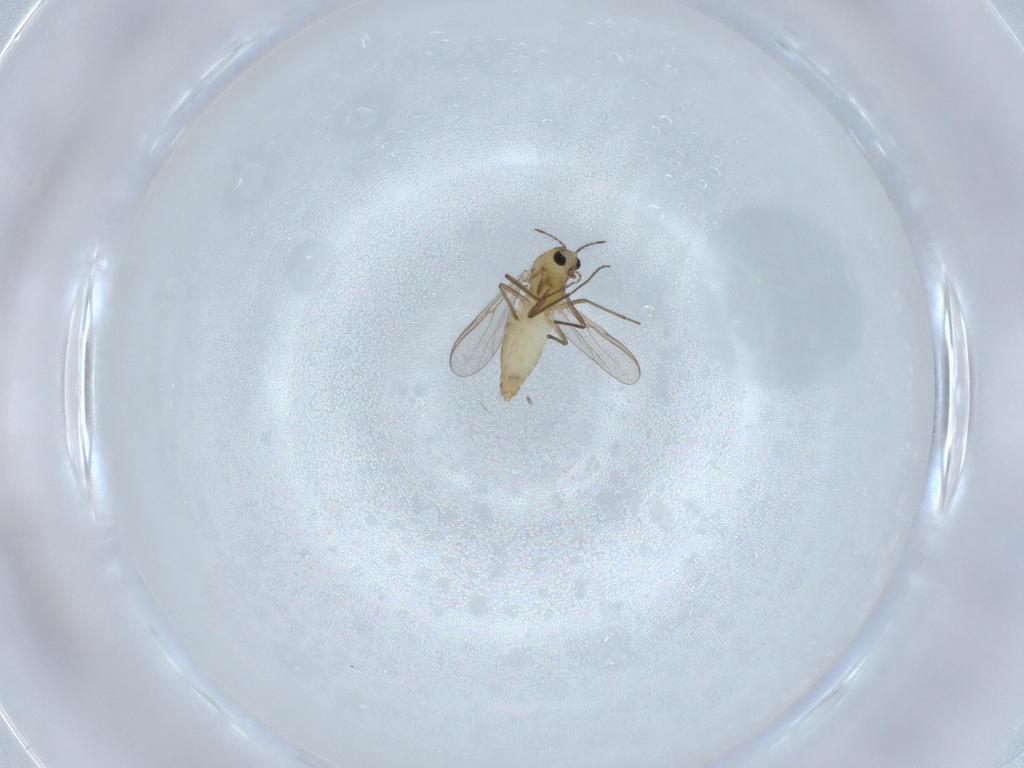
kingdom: Animalia
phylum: Arthropoda
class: Insecta
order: Diptera
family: Chironomidae
